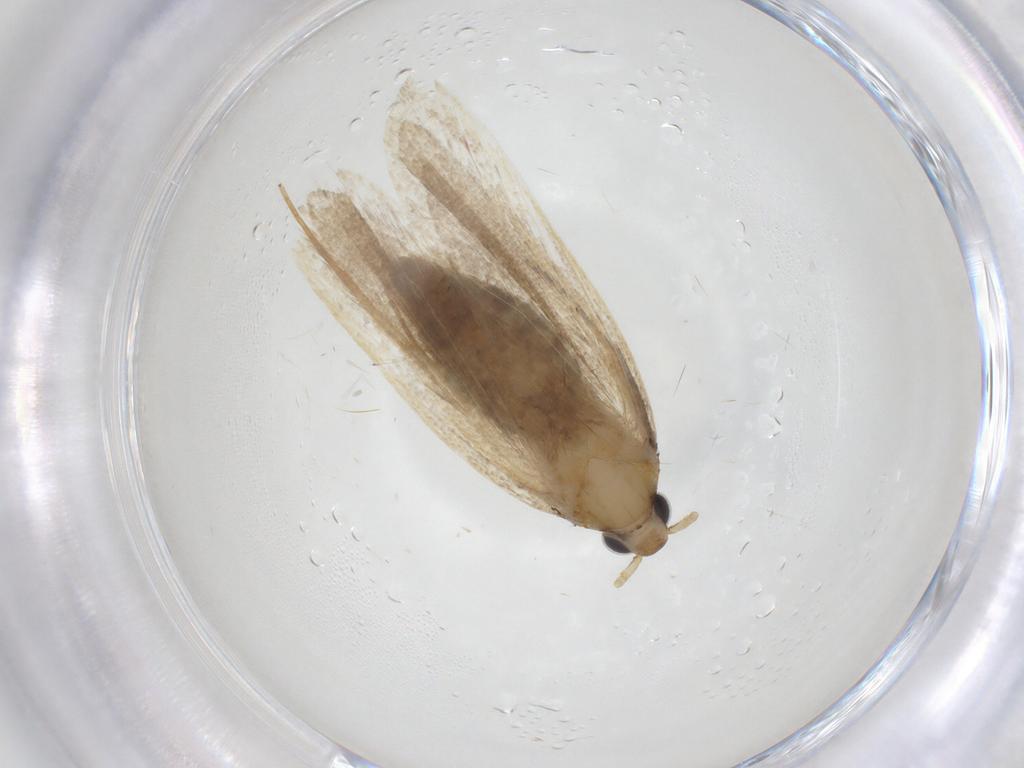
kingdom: Animalia
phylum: Arthropoda
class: Insecta
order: Lepidoptera
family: Lecithoceridae
